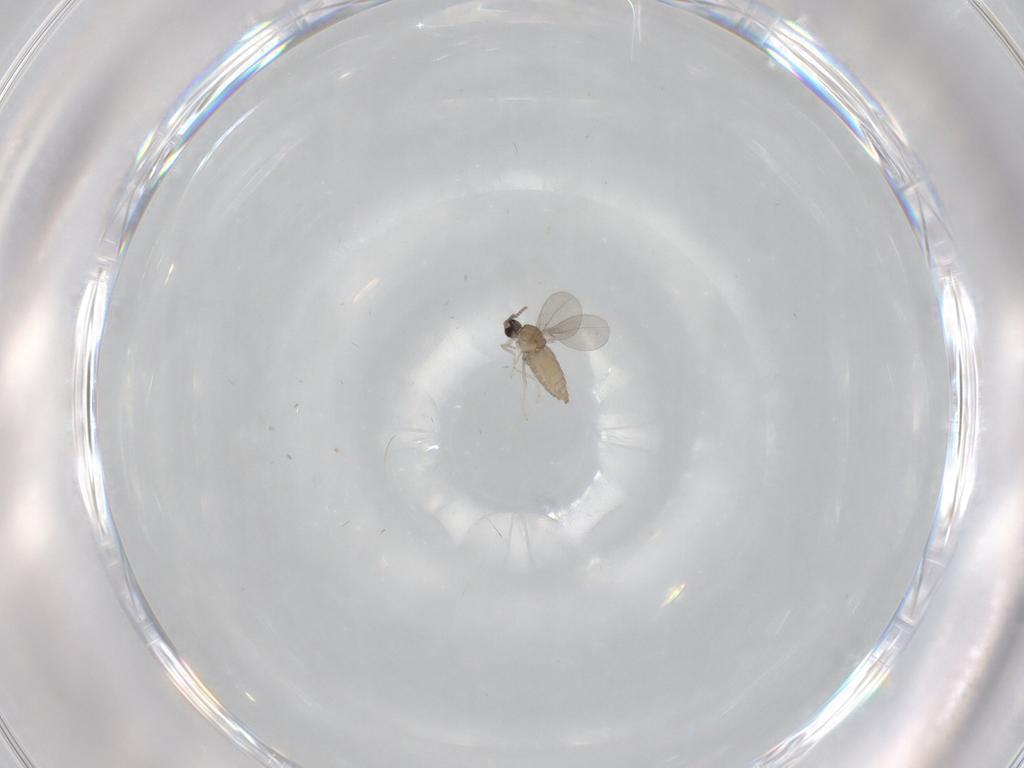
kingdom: Animalia
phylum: Arthropoda
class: Insecta
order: Diptera
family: Cecidomyiidae
